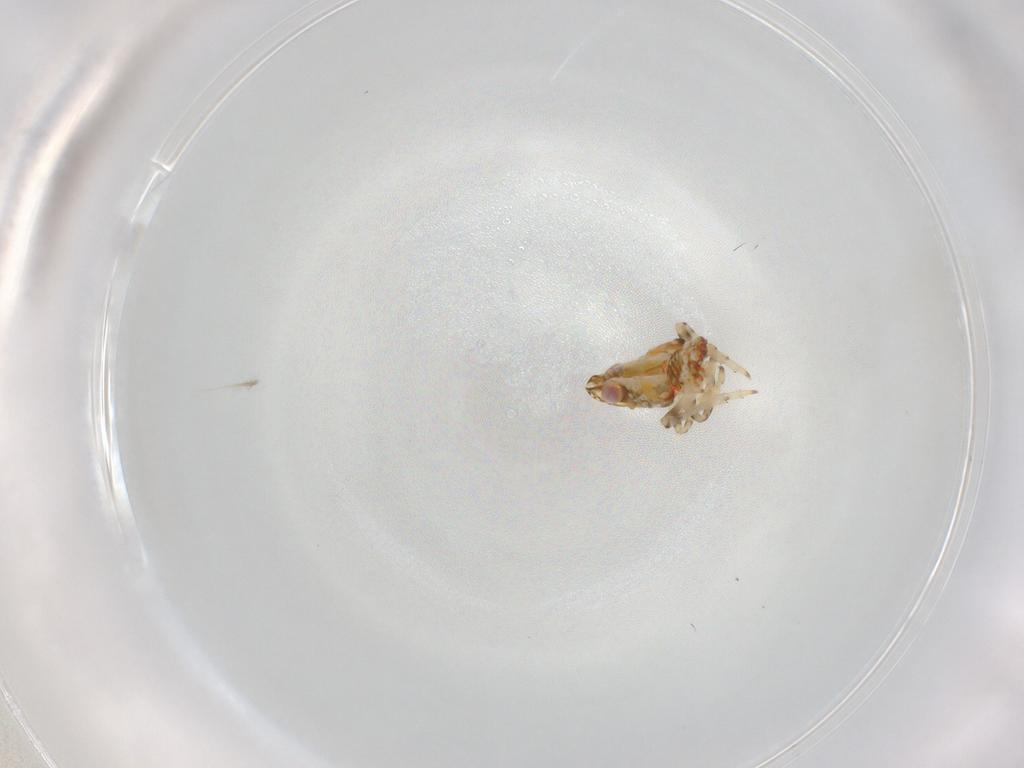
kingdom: Animalia
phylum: Arthropoda
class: Insecta
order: Hemiptera
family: Tropiduchidae
